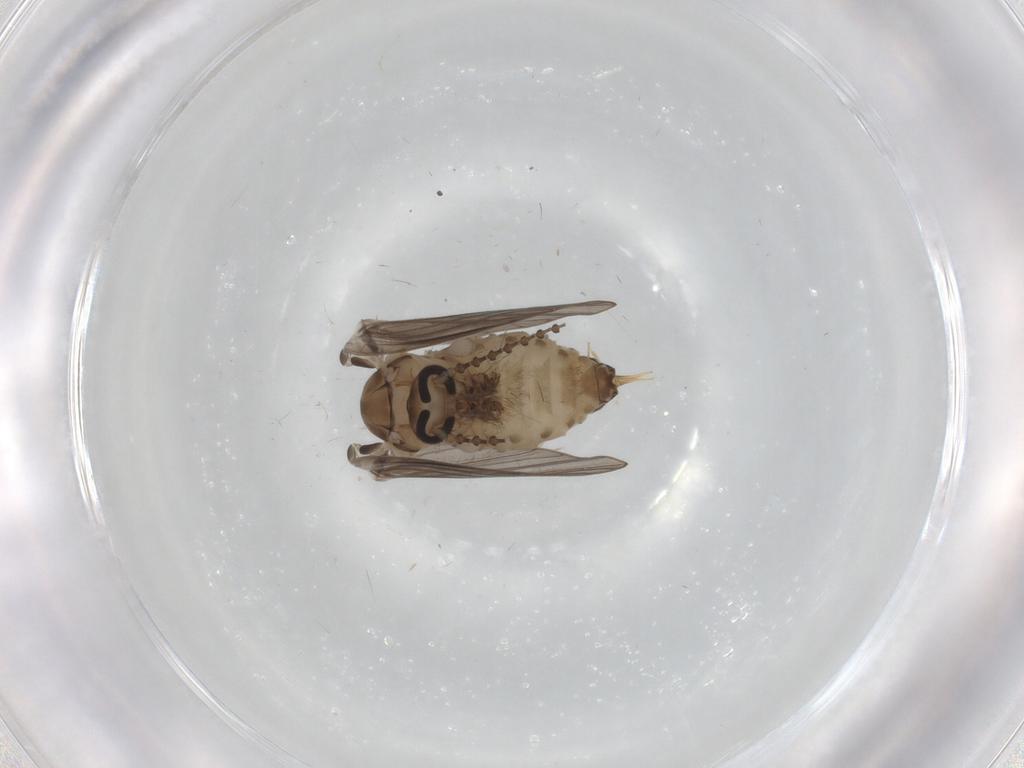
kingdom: Animalia
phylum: Arthropoda
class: Insecta
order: Diptera
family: Psychodidae
